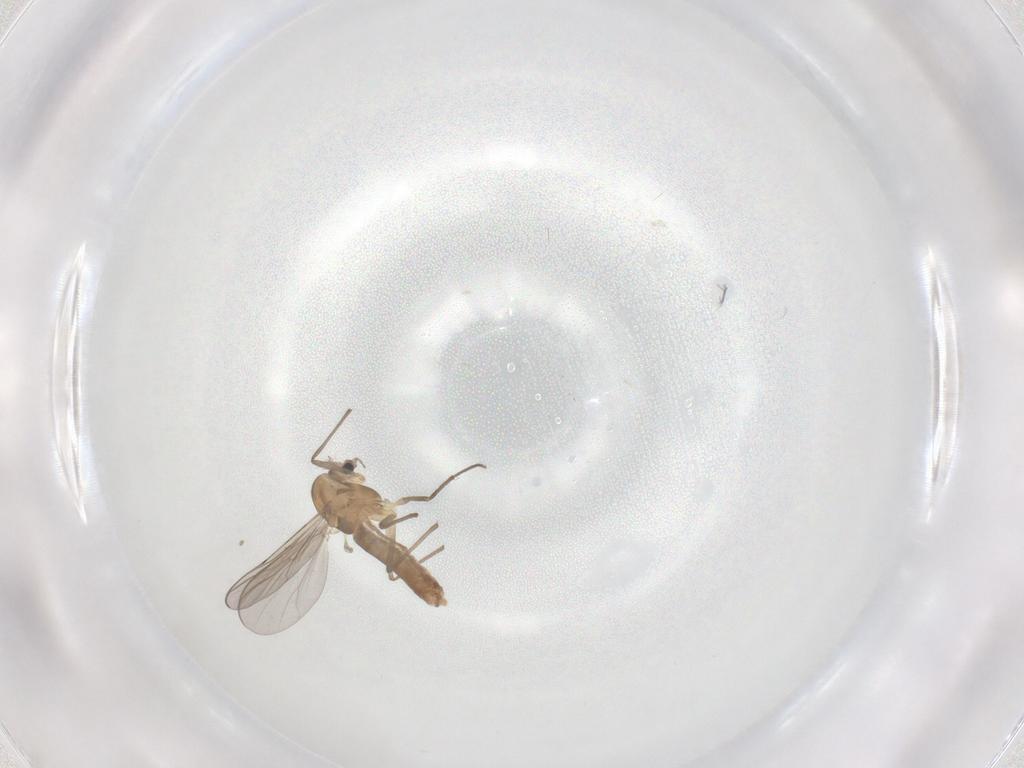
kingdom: Animalia
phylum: Arthropoda
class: Insecta
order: Diptera
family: Chironomidae
